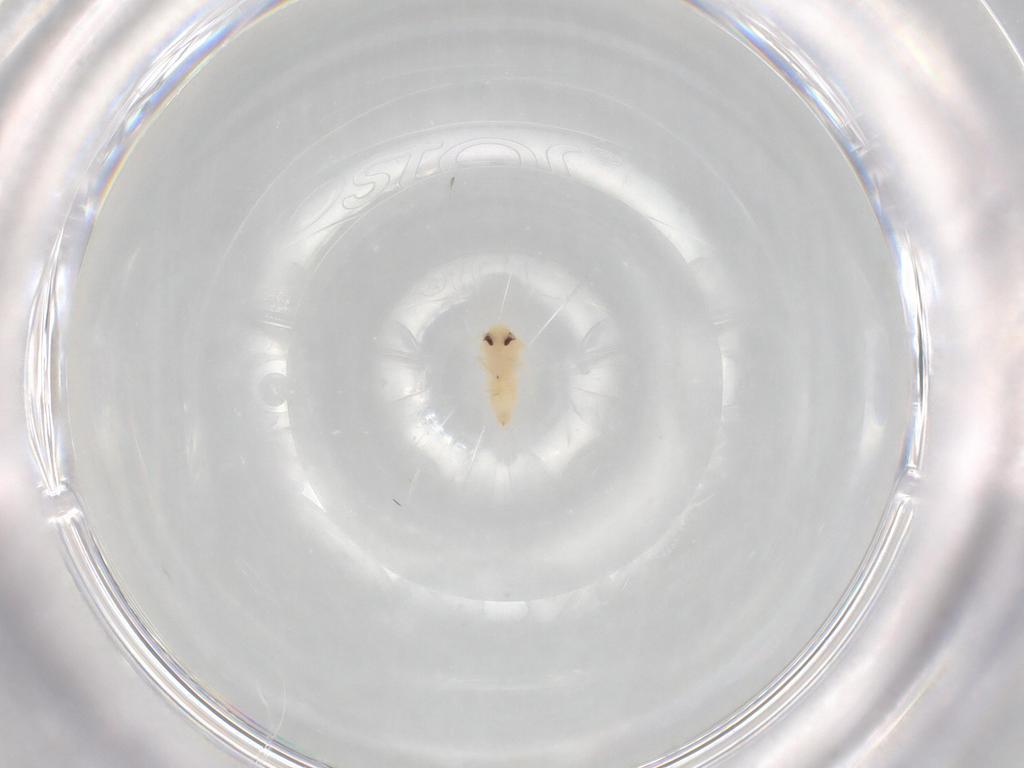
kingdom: Animalia
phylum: Arthropoda
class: Insecta
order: Hemiptera
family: Aleyrodidae
